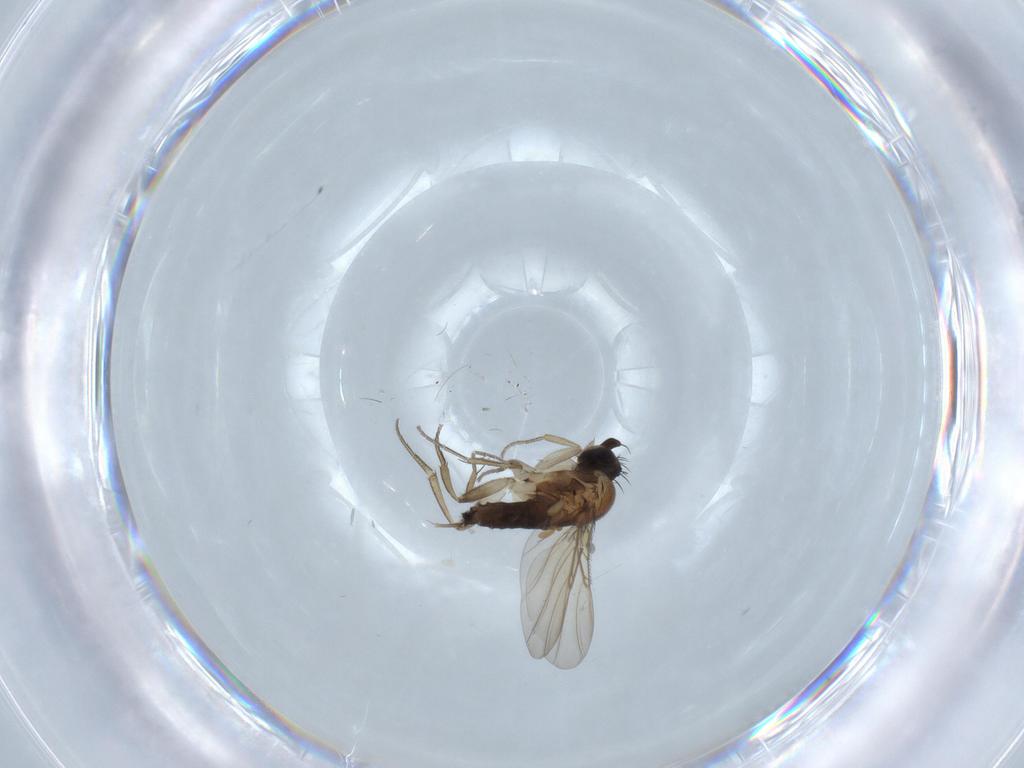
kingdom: Animalia
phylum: Arthropoda
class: Insecta
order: Diptera
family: Phoridae
